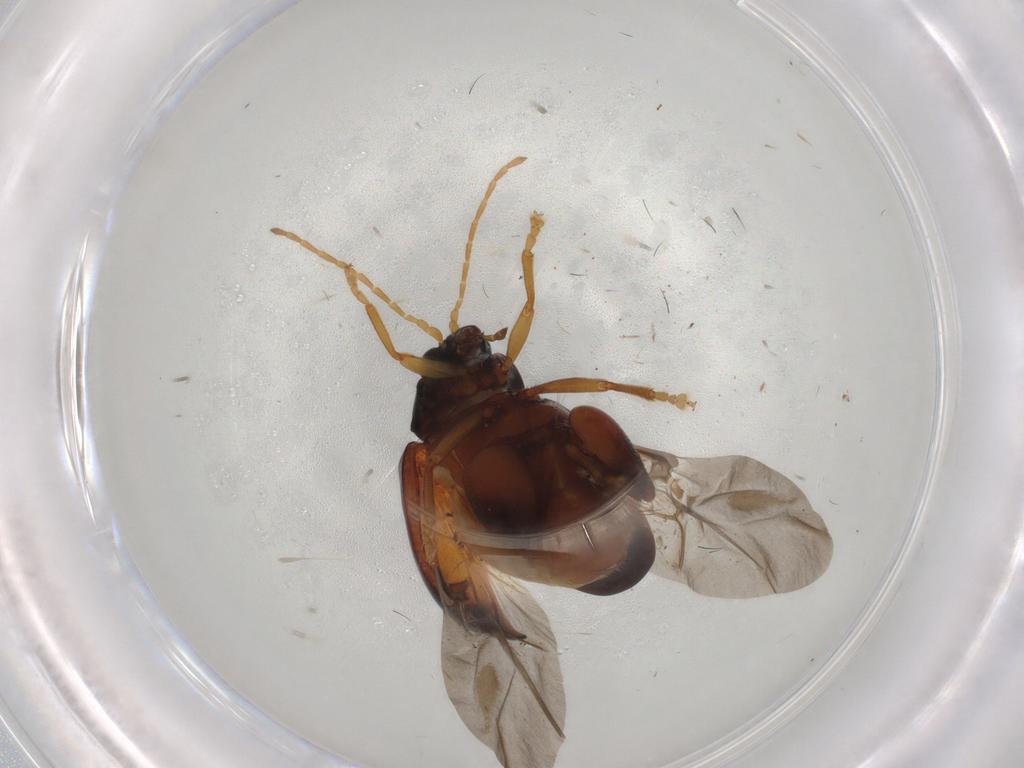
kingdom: Animalia
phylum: Arthropoda
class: Insecta
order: Coleoptera
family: Chrysomelidae
